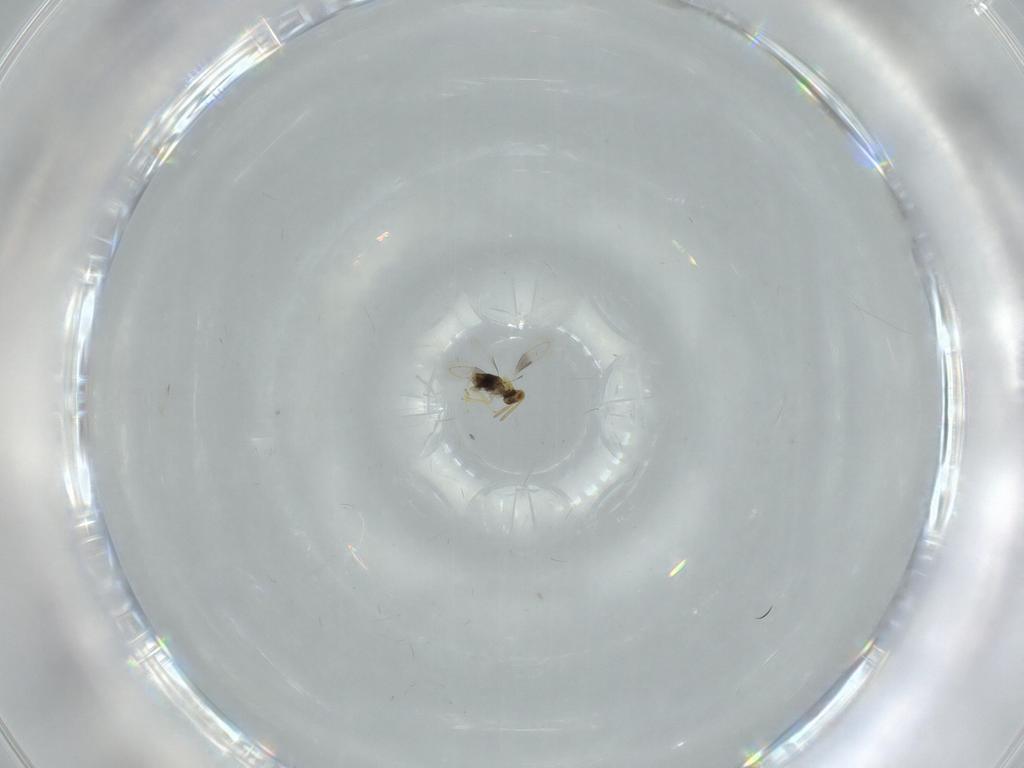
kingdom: Animalia
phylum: Arthropoda
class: Insecta
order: Hymenoptera
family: Aphelinidae
